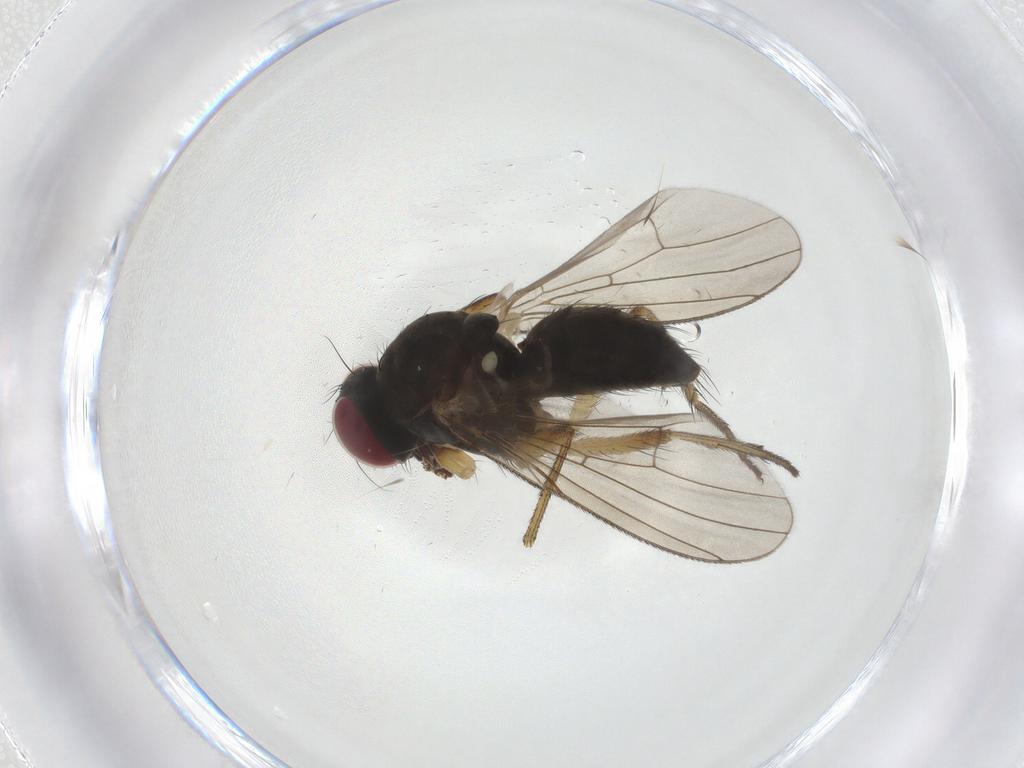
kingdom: Animalia
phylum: Arthropoda
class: Insecta
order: Diptera
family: Muscidae
